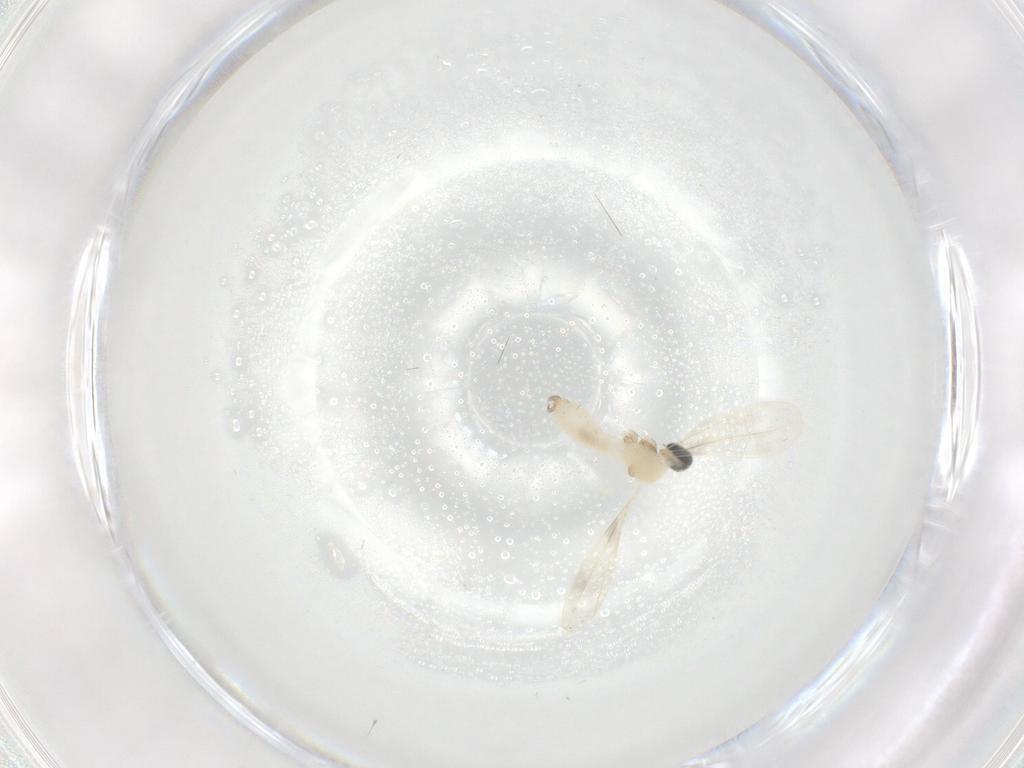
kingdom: Animalia
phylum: Arthropoda
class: Insecta
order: Diptera
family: Cecidomyiidae
